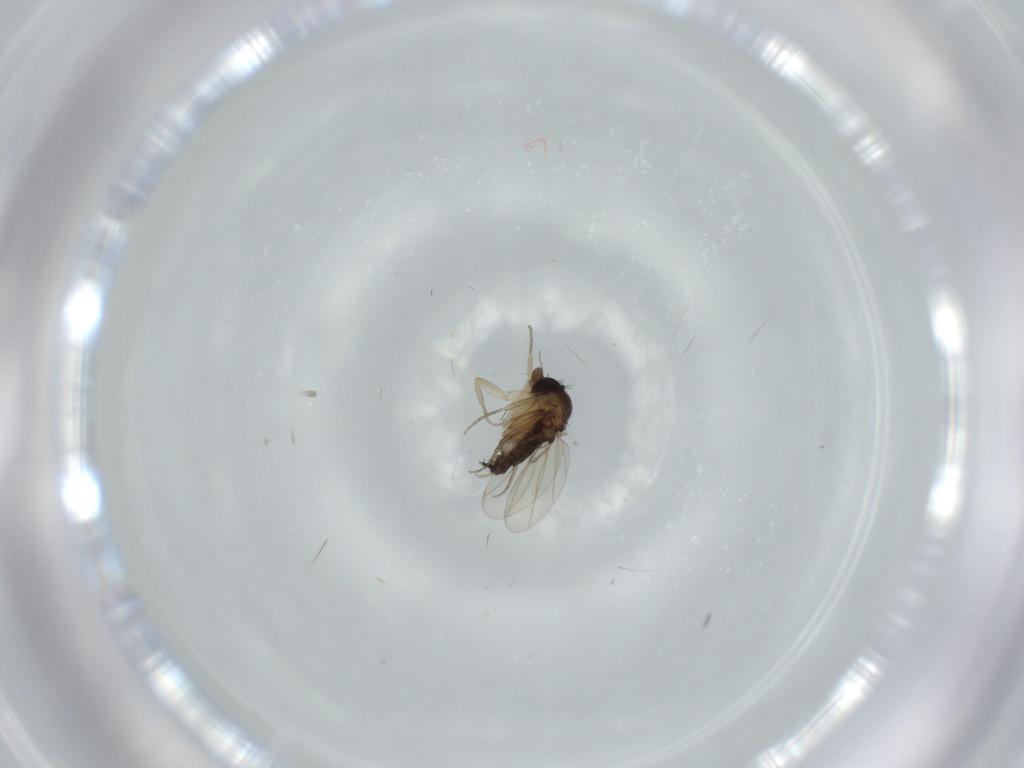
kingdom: Animalia
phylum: Arthropoda
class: Insecta
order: Diptera
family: Phoridae
